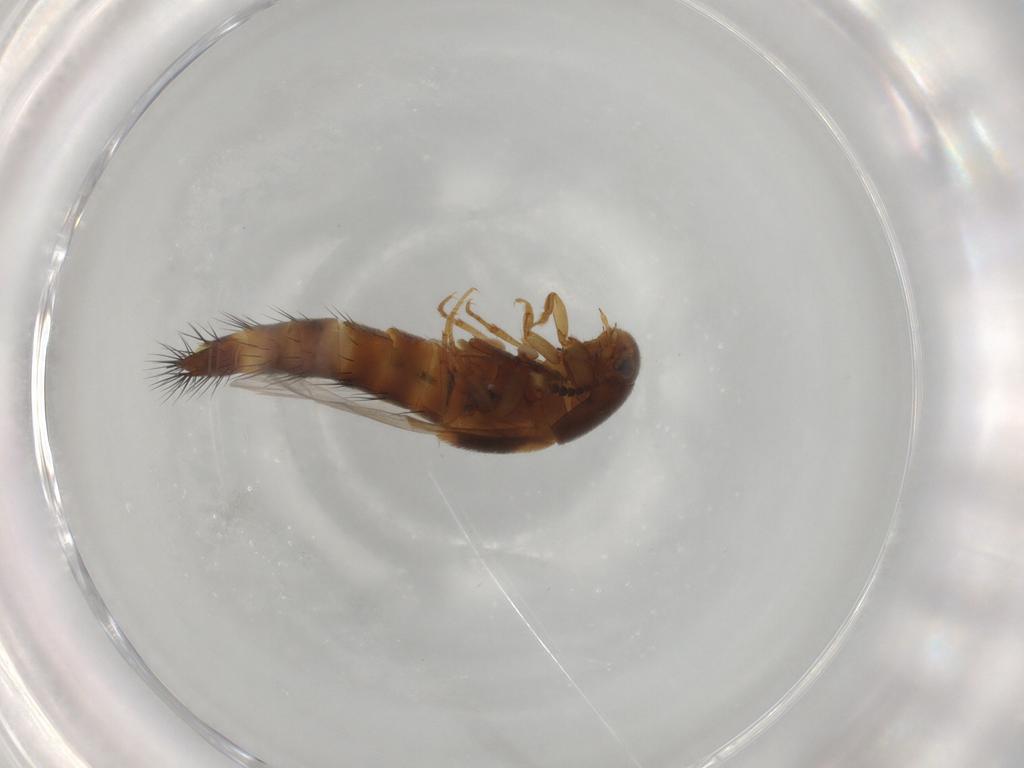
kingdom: Animalia
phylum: Arthropoda
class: Insecta
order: Coleoptera
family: Staphylinidae
